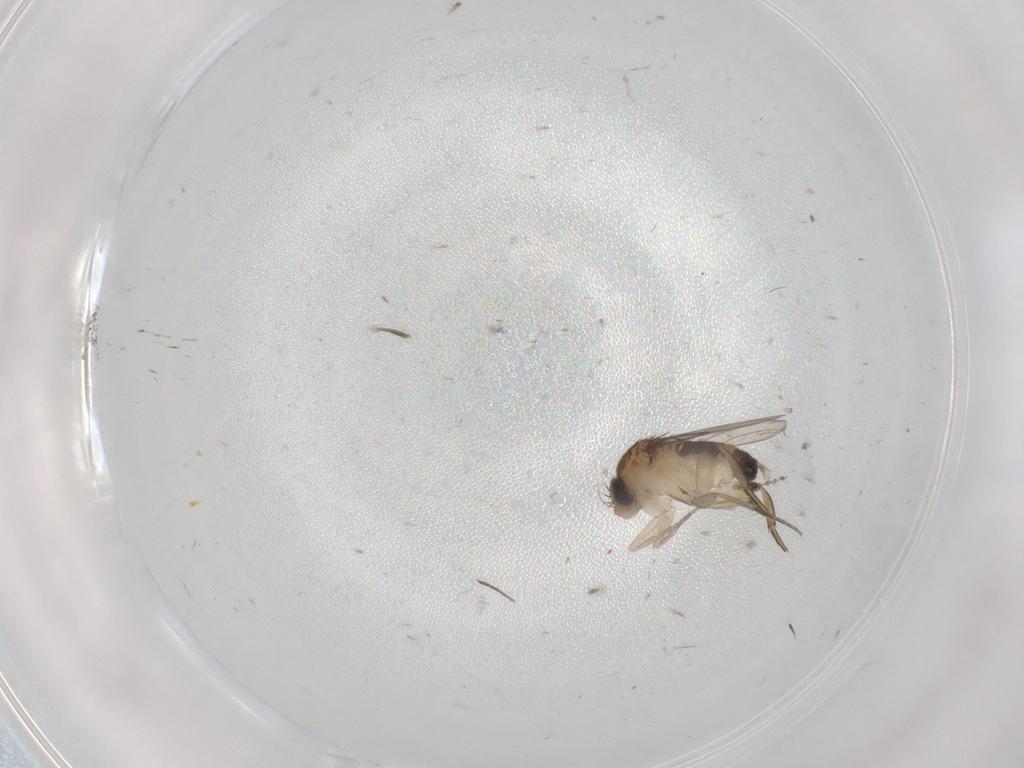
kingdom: Animalia
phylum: Arthropoda
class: Insecta
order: Diptera
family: Phoridae
